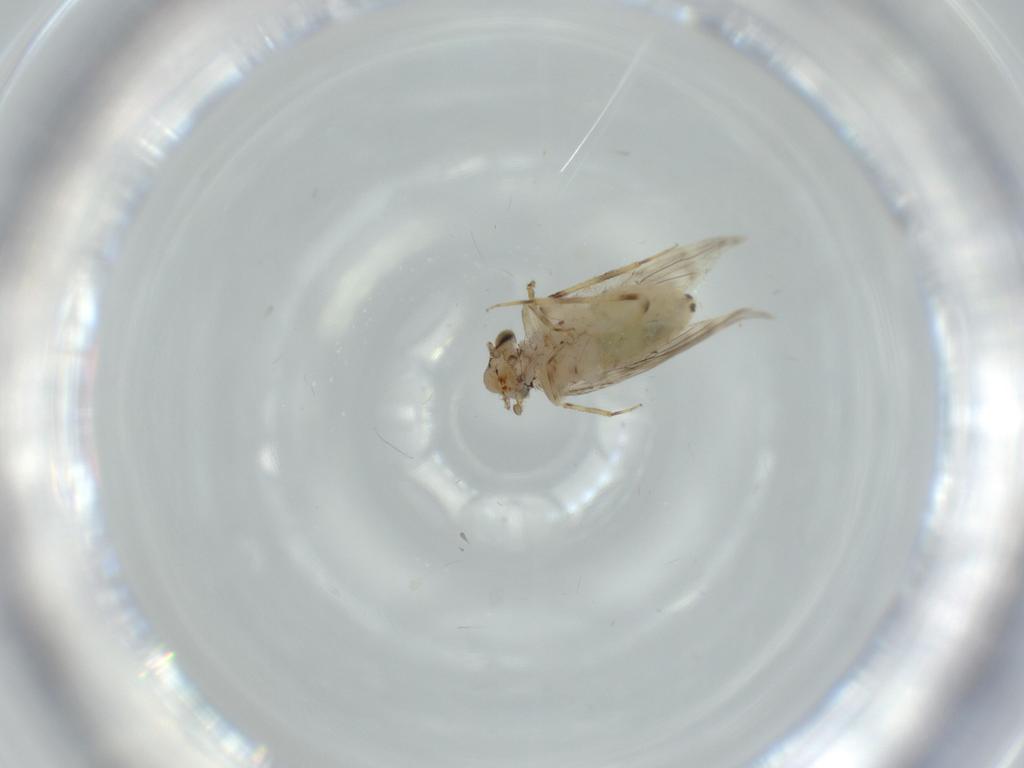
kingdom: Animalia
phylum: Arthropoda
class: Insecta
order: Psocodea
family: Lepidopsocidae
